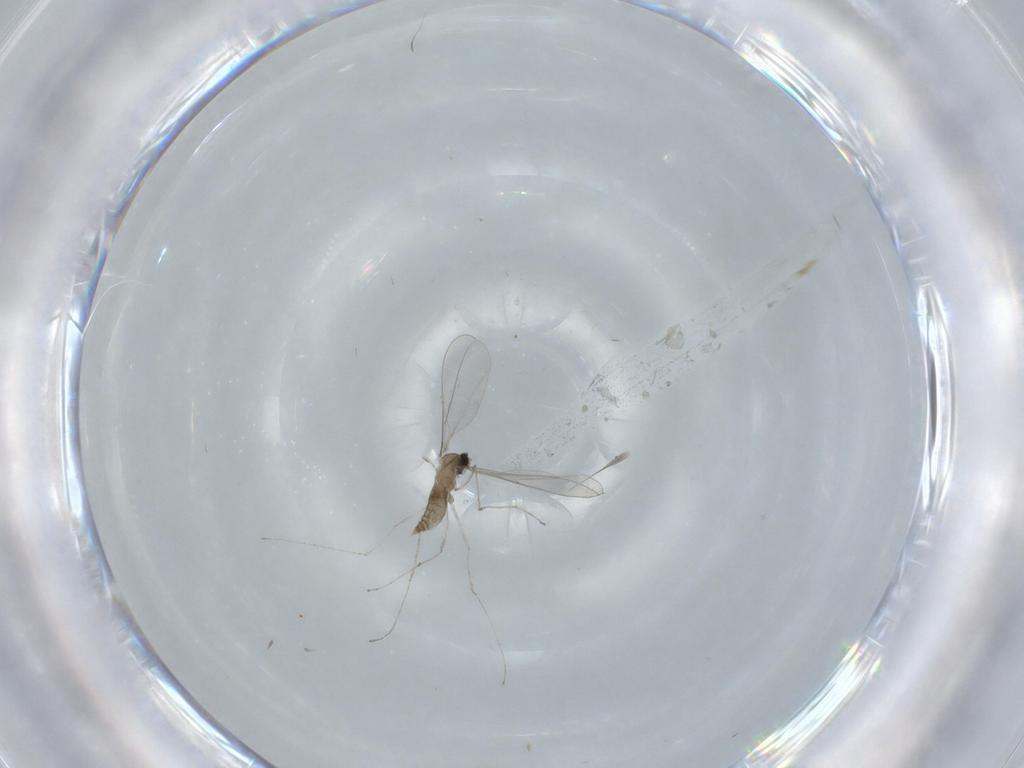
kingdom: Animalia
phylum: Arthropoda
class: Insecta
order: Diptera
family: Cecidomyiidae
